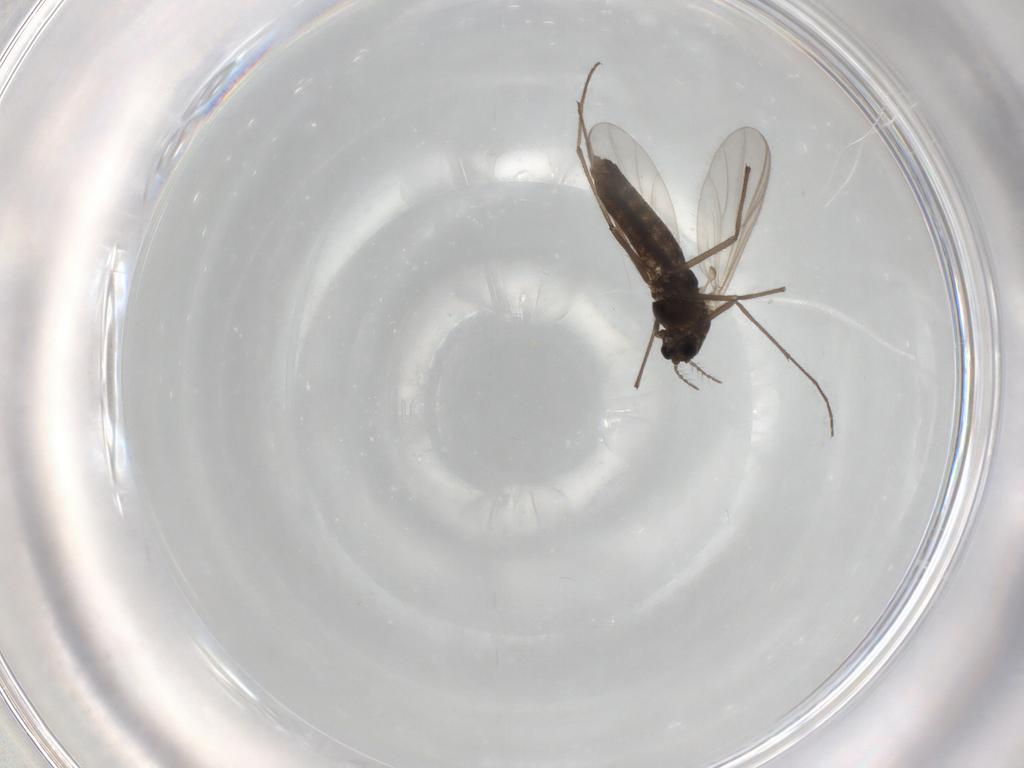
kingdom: Animalia
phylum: Arthropoda
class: Insecta
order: Diptera
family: Chironomidae
